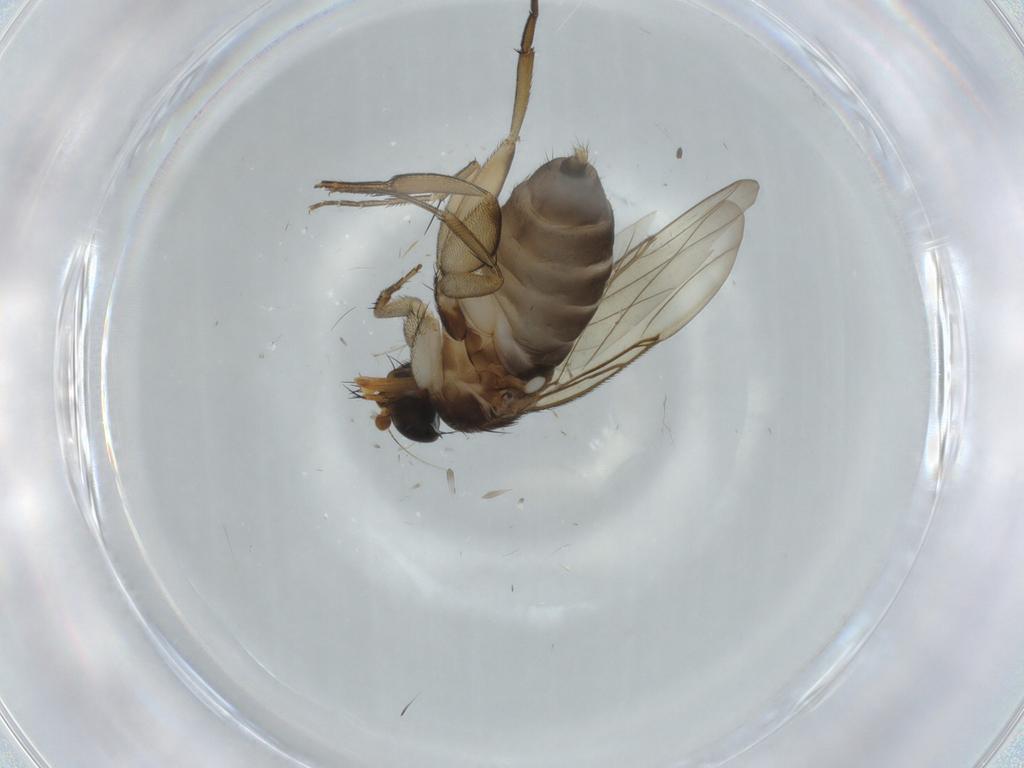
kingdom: Animalia
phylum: Arthropoda
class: Insecta
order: Diptera
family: Phoridae
